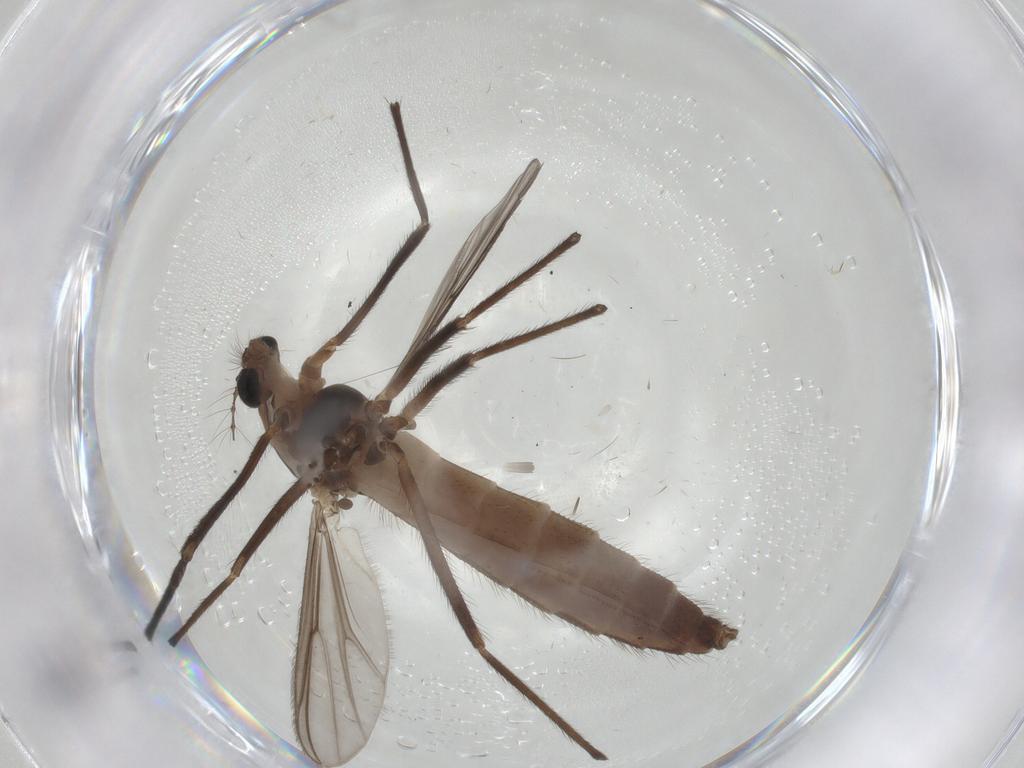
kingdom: Animalia
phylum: Arthropoda
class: Insecta
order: Diptera
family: Chironomidae
